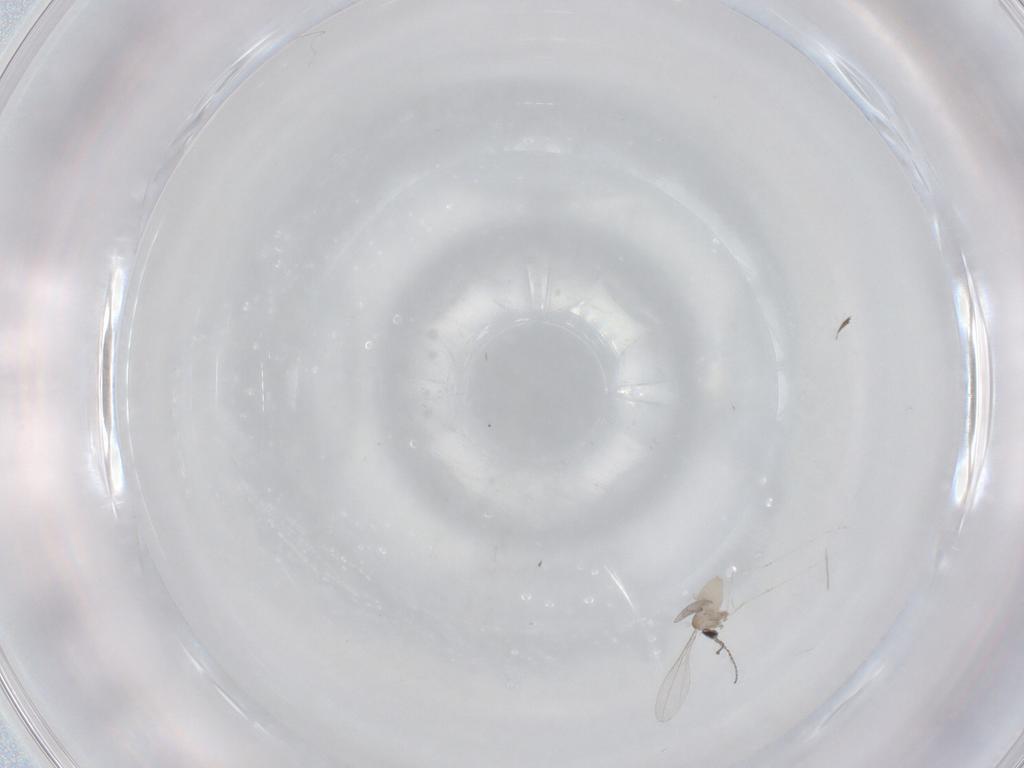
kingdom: Animalia
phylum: Arthropoda
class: Insecta
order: Diptera
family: Cecidomyiidae
